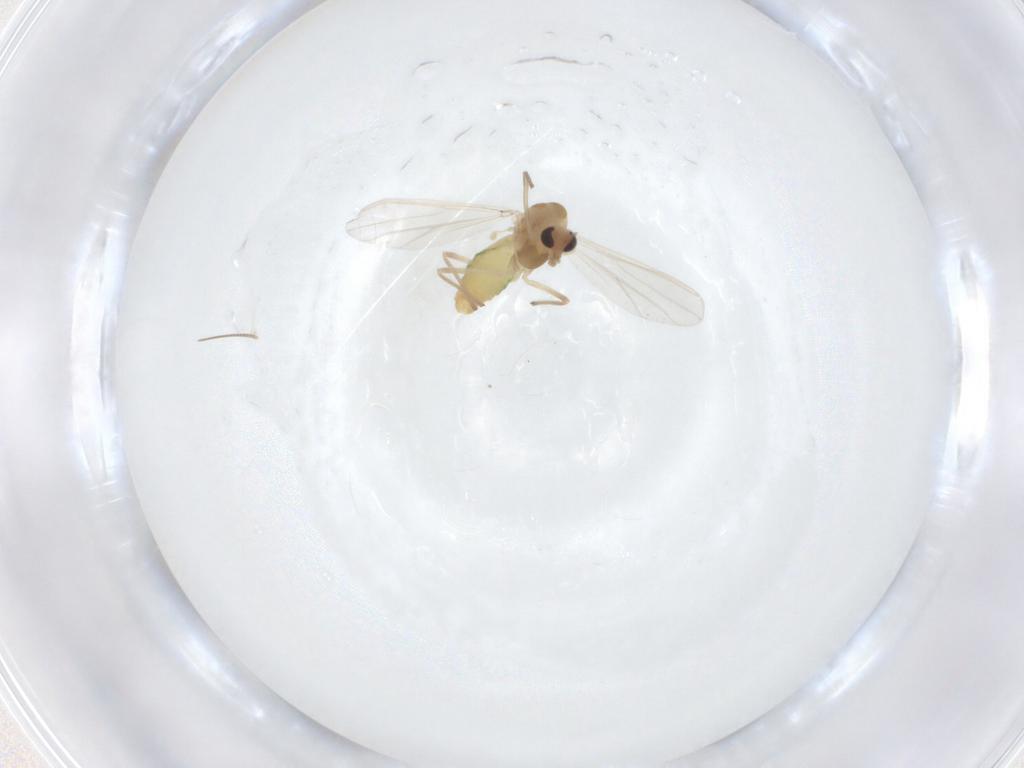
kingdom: Animalia
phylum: Arthropoda
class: Insecta
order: Diptera
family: Chironomidae
